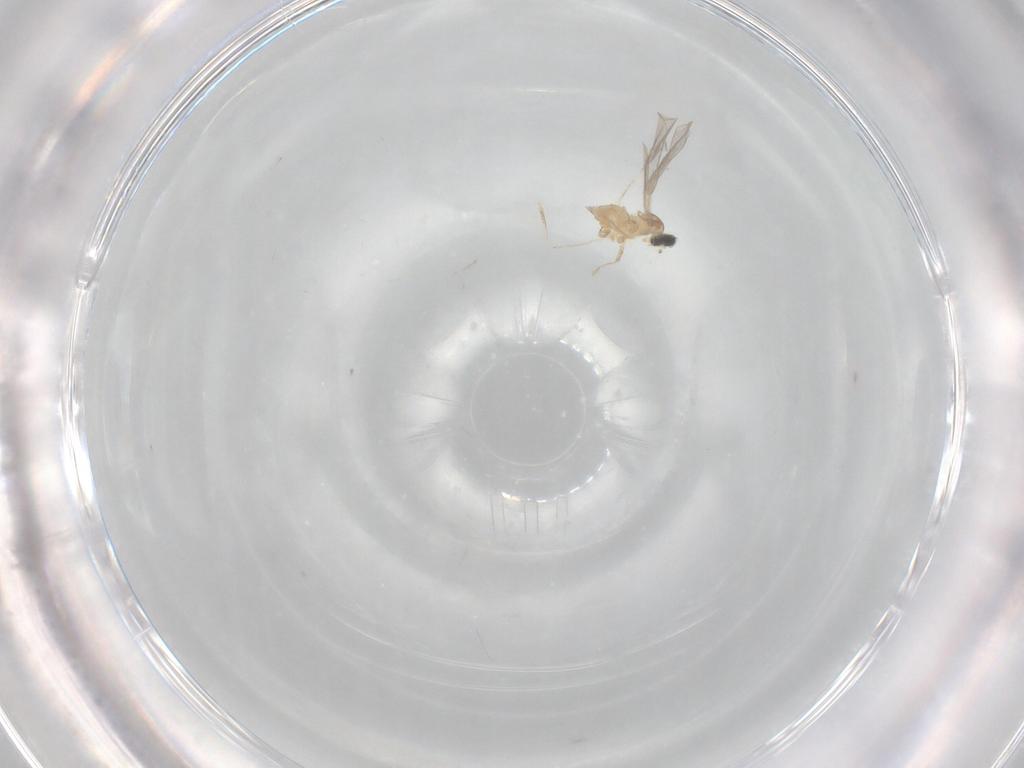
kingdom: Animalia
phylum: Arthropoda
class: Insecta
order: Diptera
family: Cecidomyiidae
